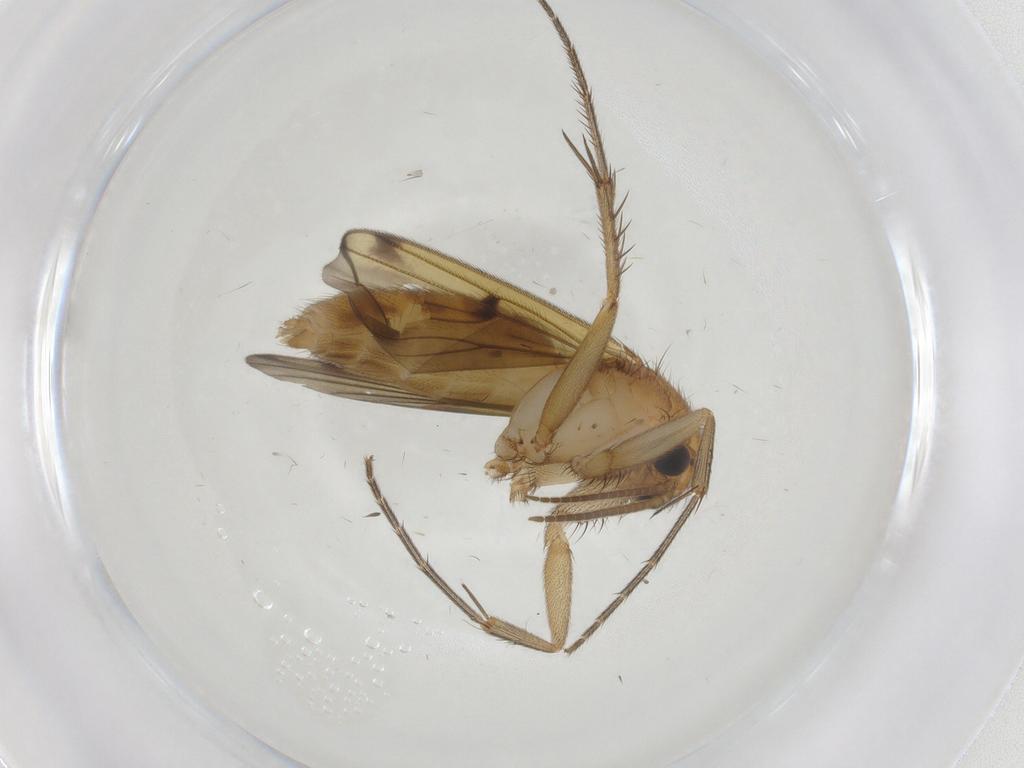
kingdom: Animalia
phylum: Arthropoda
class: Insecta
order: Diptera
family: Mycetophilidae
